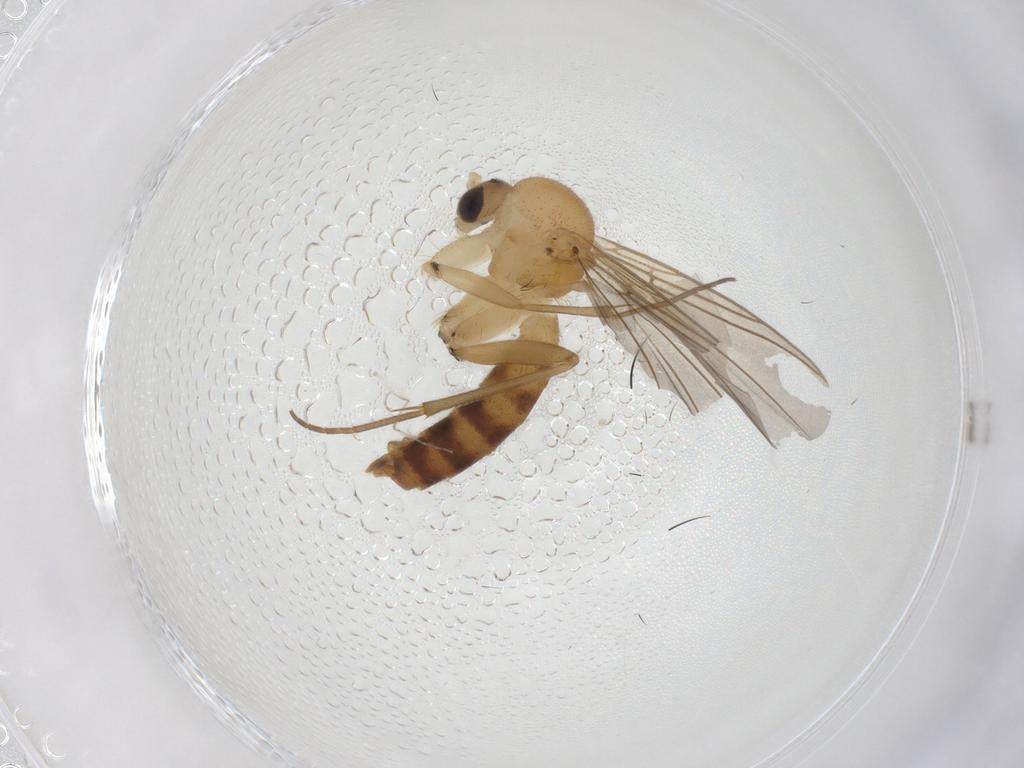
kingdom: Animalia
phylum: Arthropoda
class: Insecta
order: Diptera
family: Mycetophilidae
